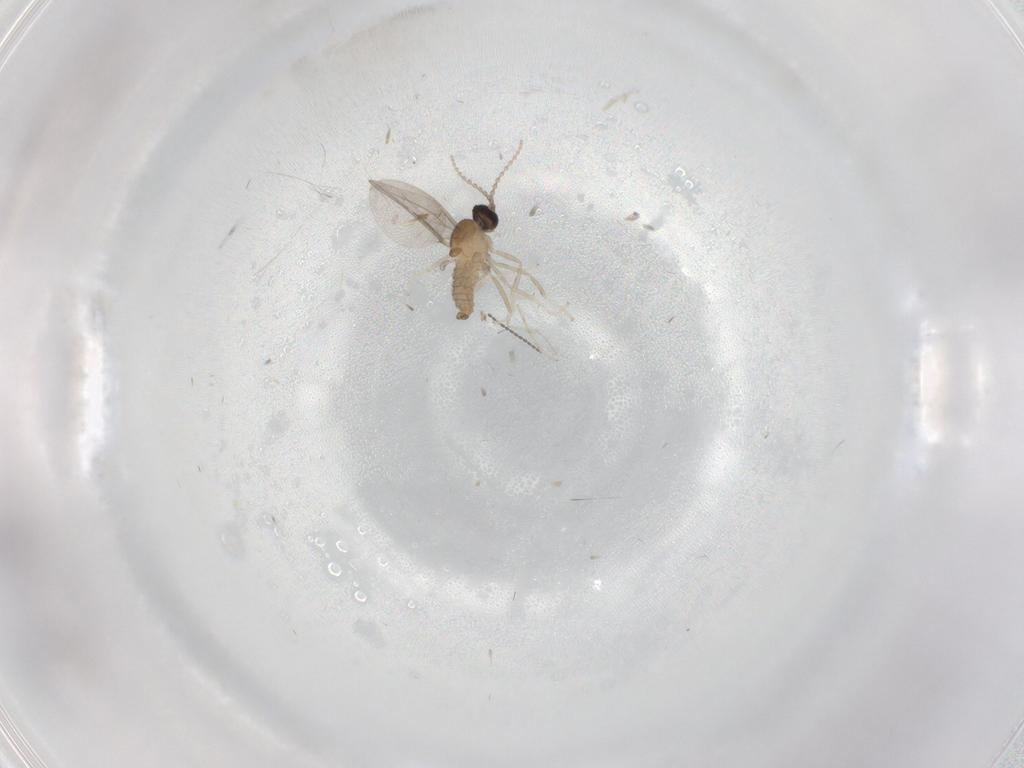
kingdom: Animalia
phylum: Arthropoda
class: Insecta
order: Diptera
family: Cecidomyiidae
